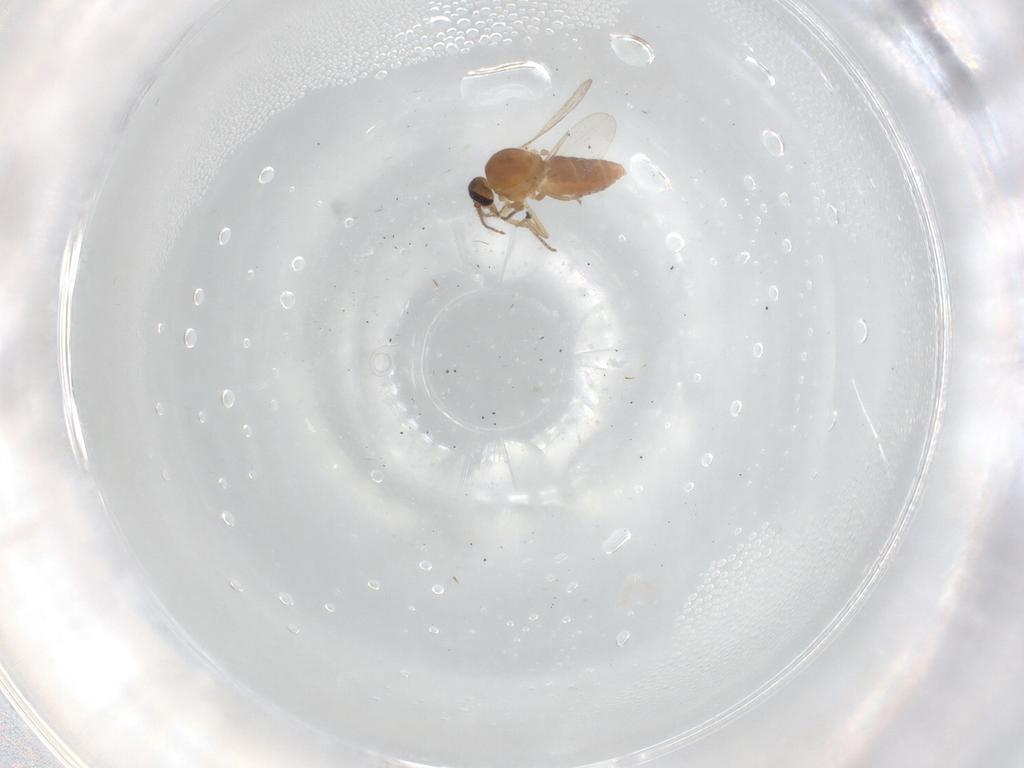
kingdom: Animalia
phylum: Arthropoda
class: Insecta
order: Diptera
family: Ceratopogonidae
